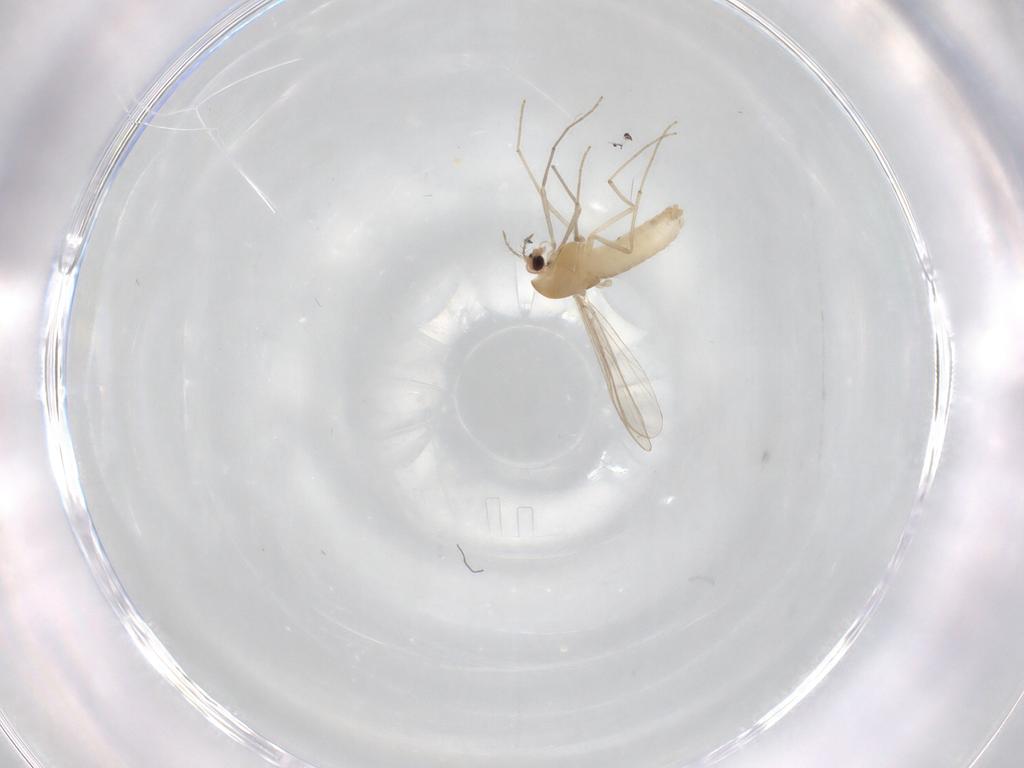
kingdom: Animalia
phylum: Arthropoda
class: Insecta
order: Diptera
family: Chironomidae
